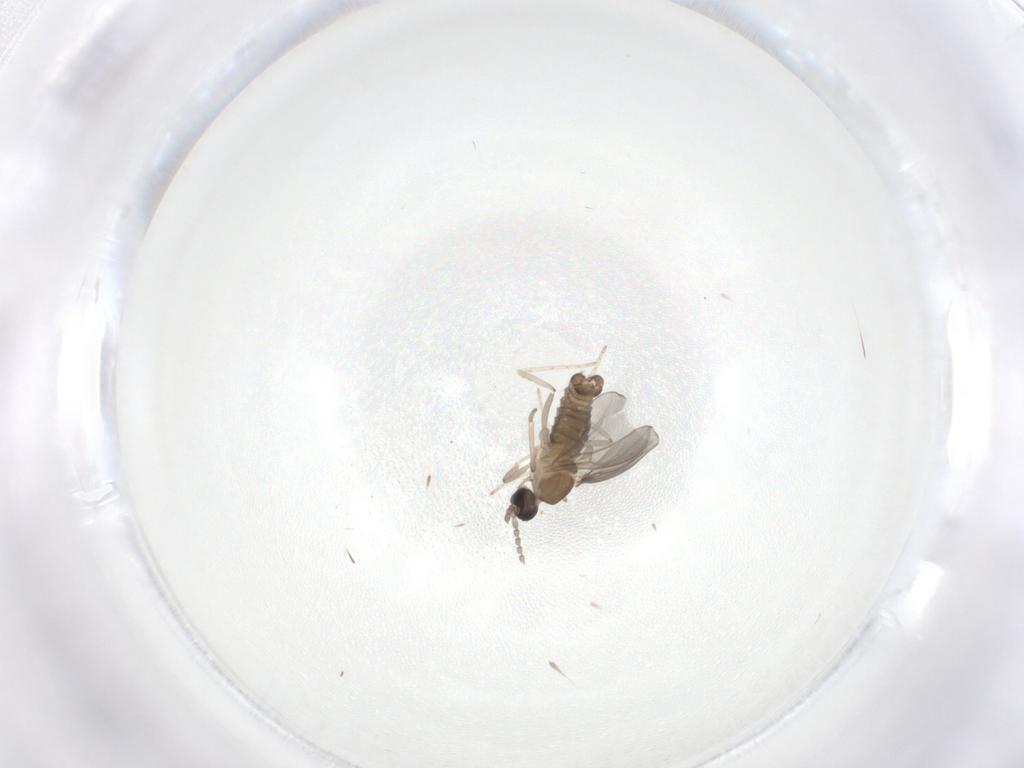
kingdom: Animalia
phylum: Arthropoda
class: Insecta
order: Diptera
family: Cecidomyiidae
